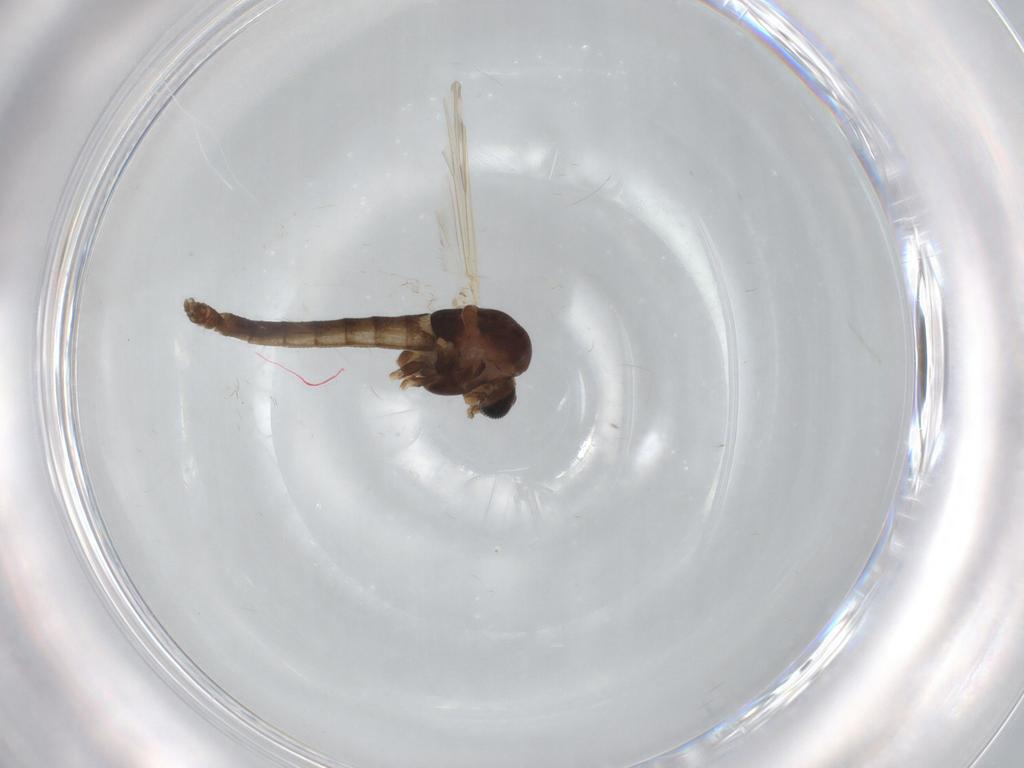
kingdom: Animalia
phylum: Arthropoda
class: Insecta
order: Diptera
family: Chironomidae
